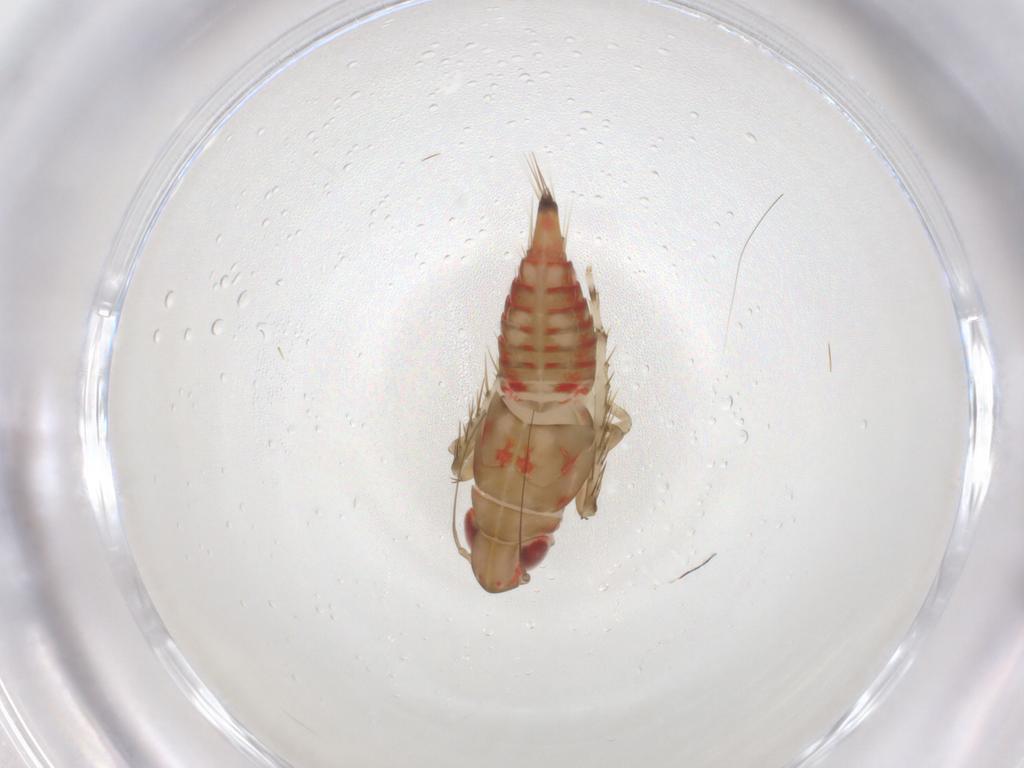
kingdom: Animalia
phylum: Arthropoda
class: Insecta
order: Hemiptera
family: Cicadellidae
